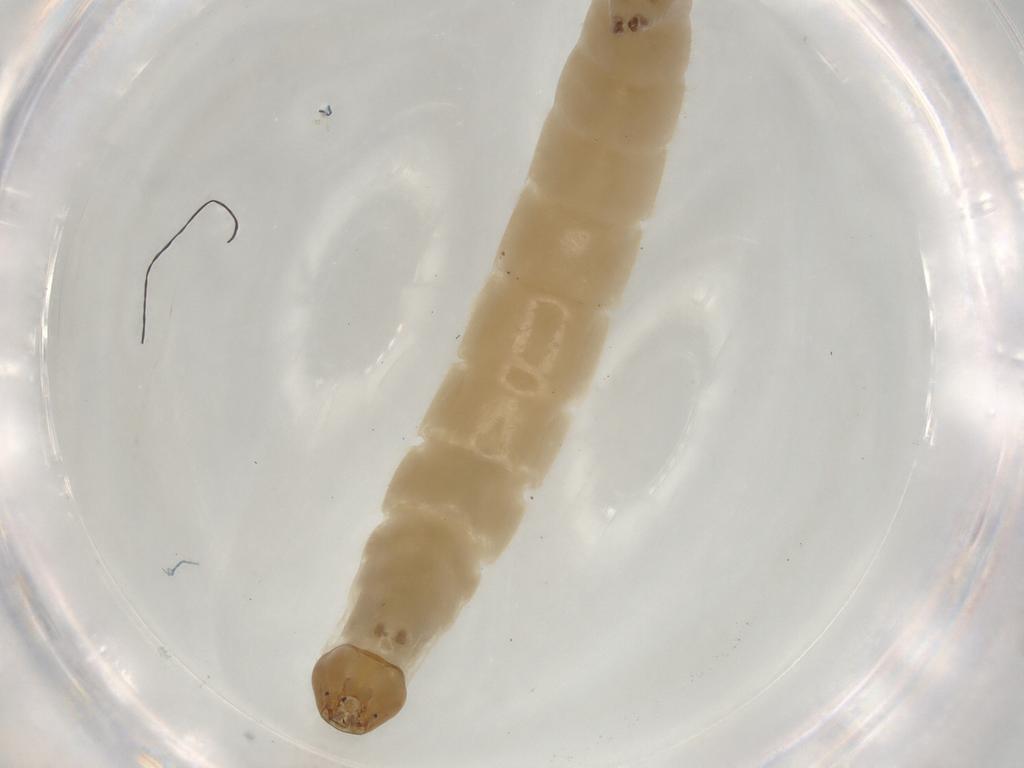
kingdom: Animalia
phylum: Arthropoda
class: Insecta
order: Diptera
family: Chironomidae
